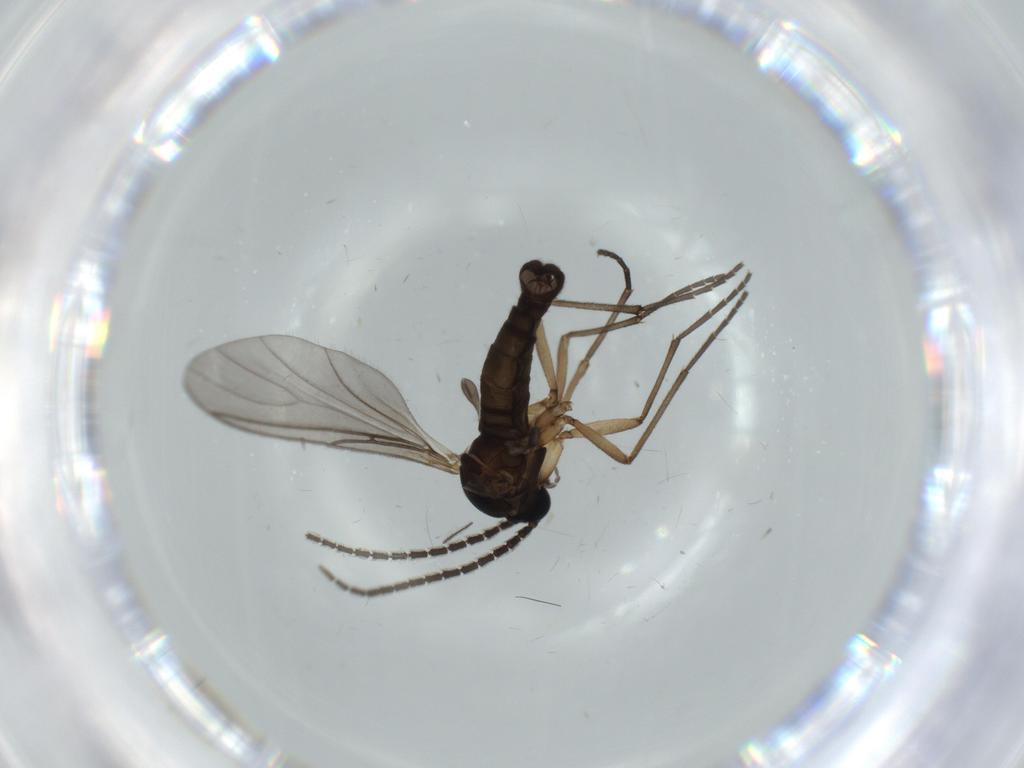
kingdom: Animalia
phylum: Arthropoda
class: Insecta
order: Diptera
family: Sciaridae
